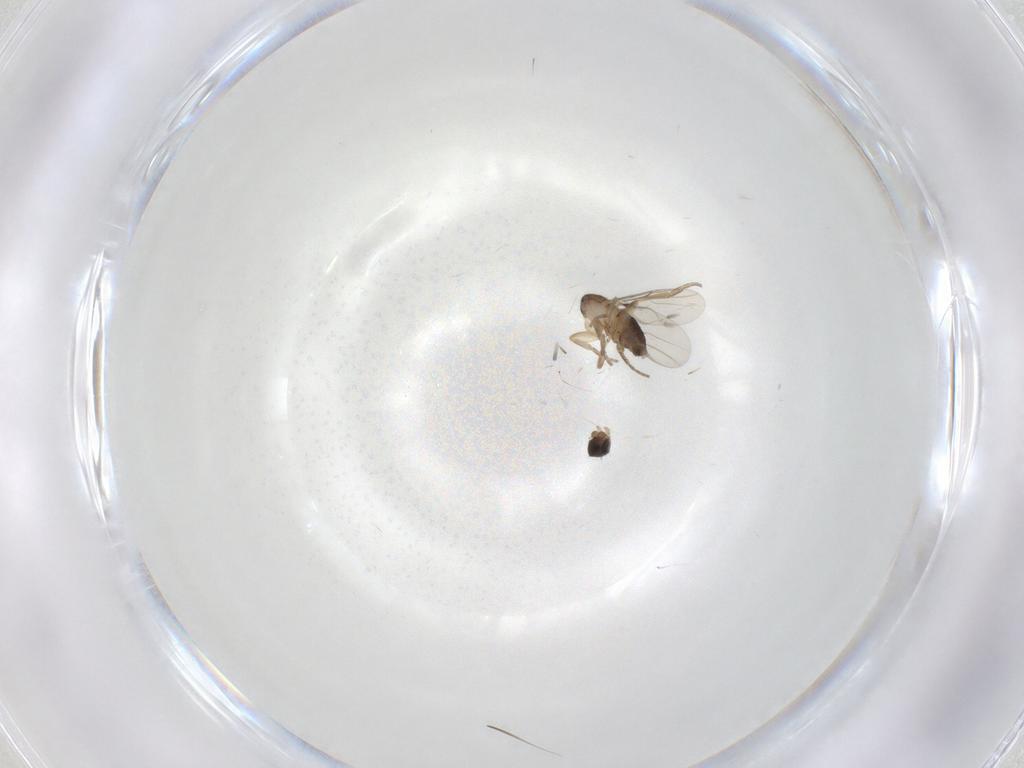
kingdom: Animalia
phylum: Arthropoda
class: Insecta
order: Diptera
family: Phoridae
